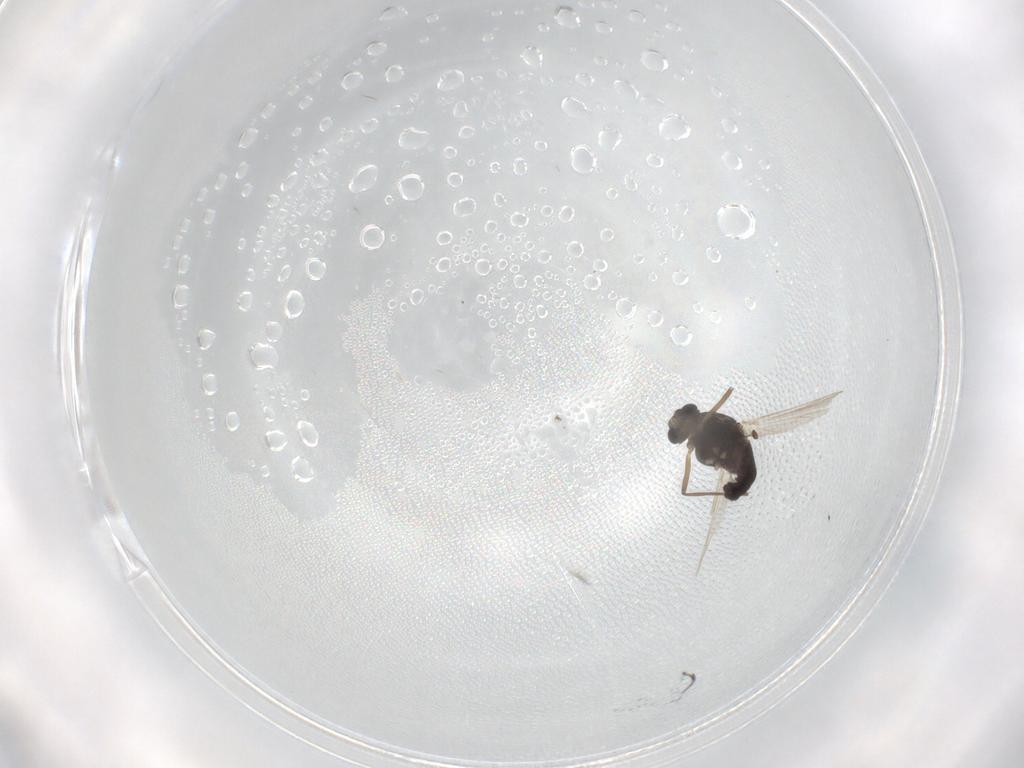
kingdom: Animalia
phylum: Arthropoda
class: Insecta
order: Diptera
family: Chironomidae
